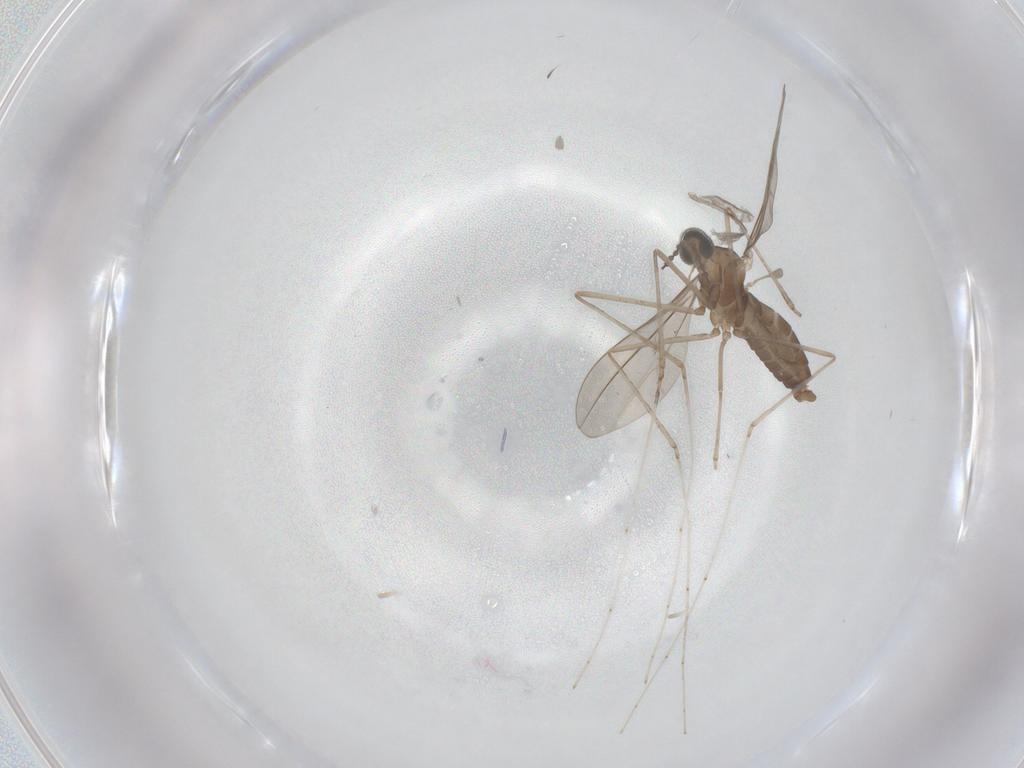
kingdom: Animalia
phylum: Arthropoda
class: Insecta
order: Diptera
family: Cecidomyiidae
